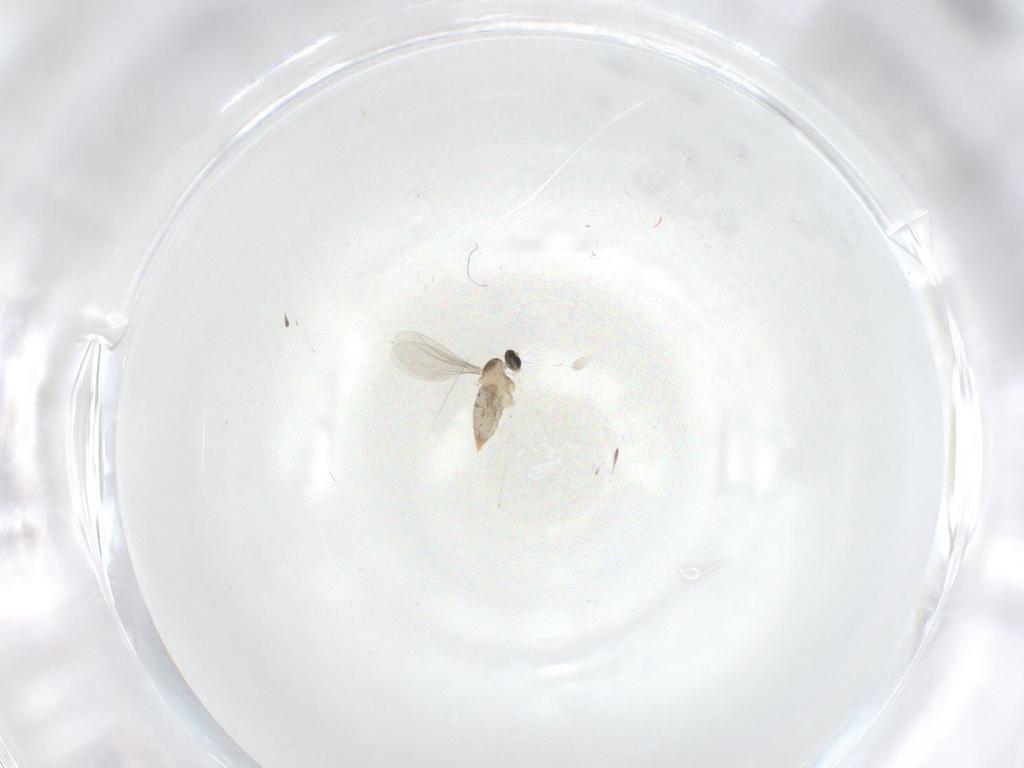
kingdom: Animalia
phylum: Arthropoda
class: Insecta
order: Diptera
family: Cecidomyiidae
